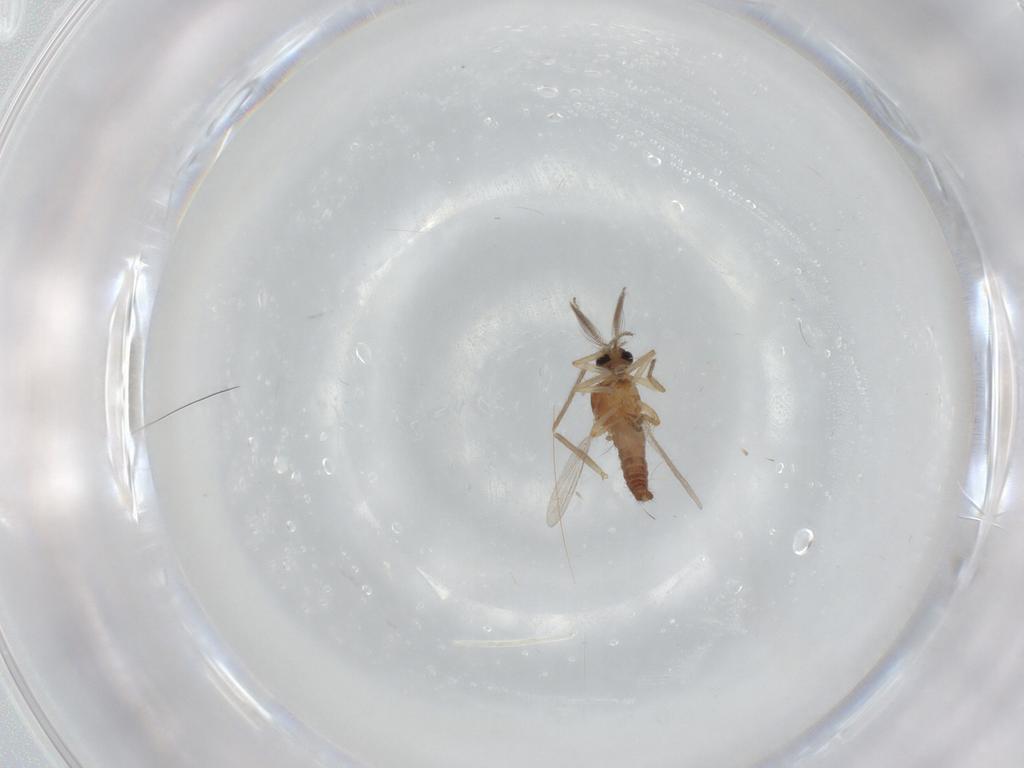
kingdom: Animalia
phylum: Arthropoda
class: Insecta
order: Diptera
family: Ceratopogonidae
